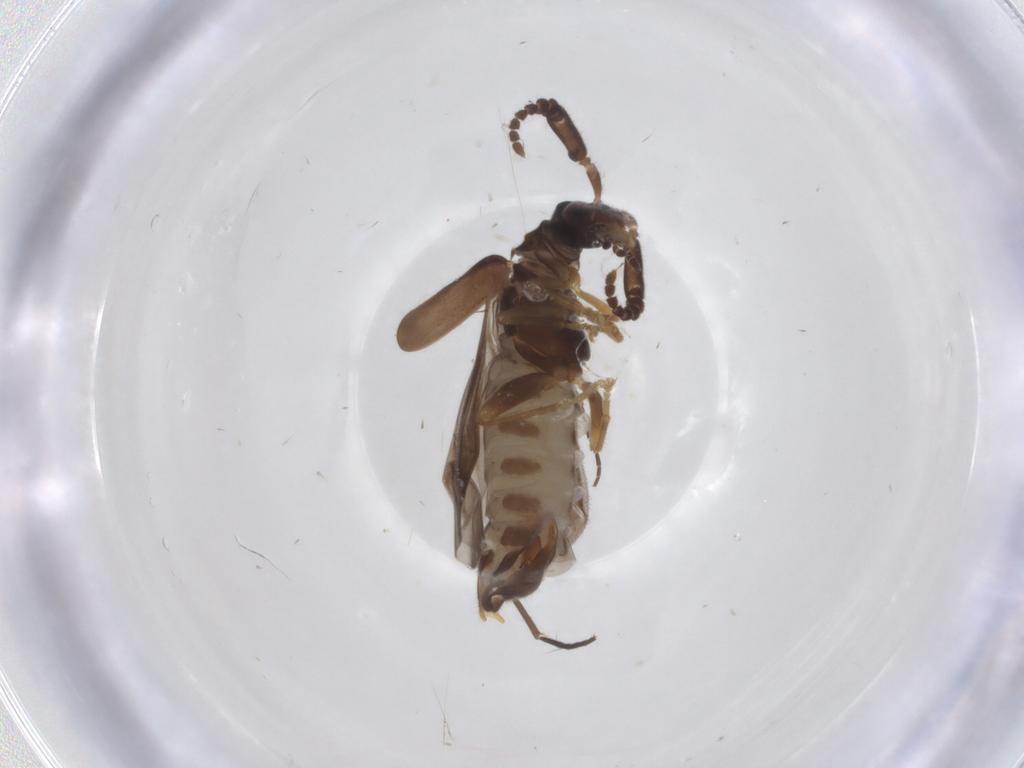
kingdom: Animalia
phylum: Arthropoda
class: Insecta
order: Coleoptera
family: Cantharidae
